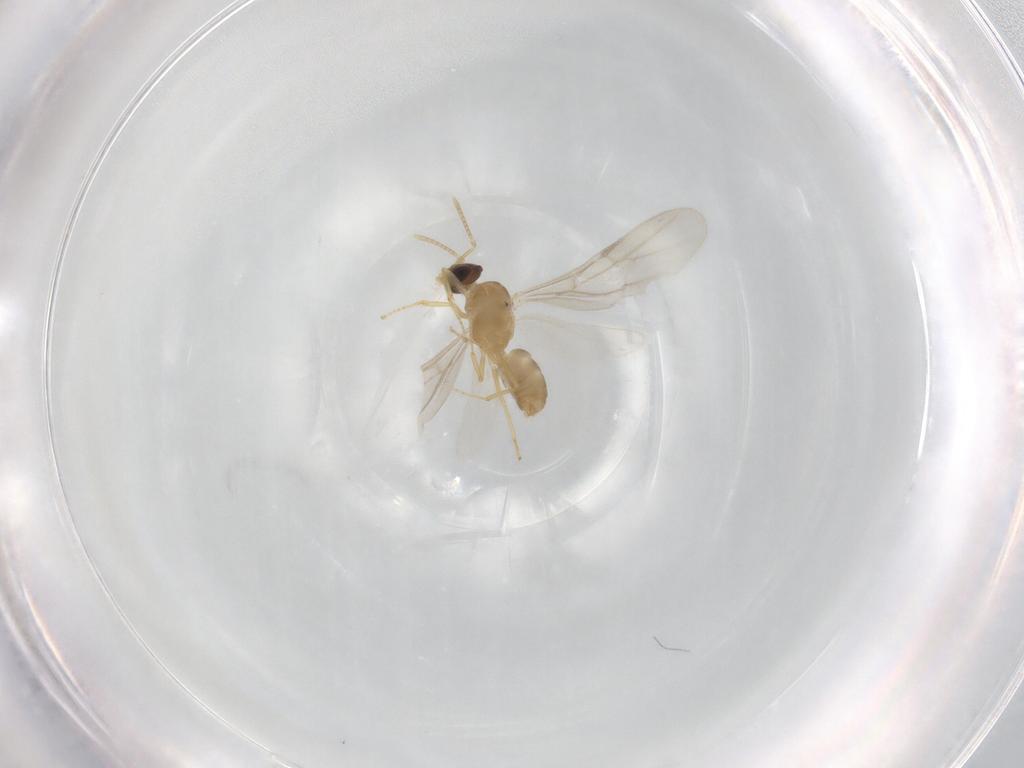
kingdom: Animalia
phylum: Arthropoda
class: Insecta
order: Hymenoptera
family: Formicidae
